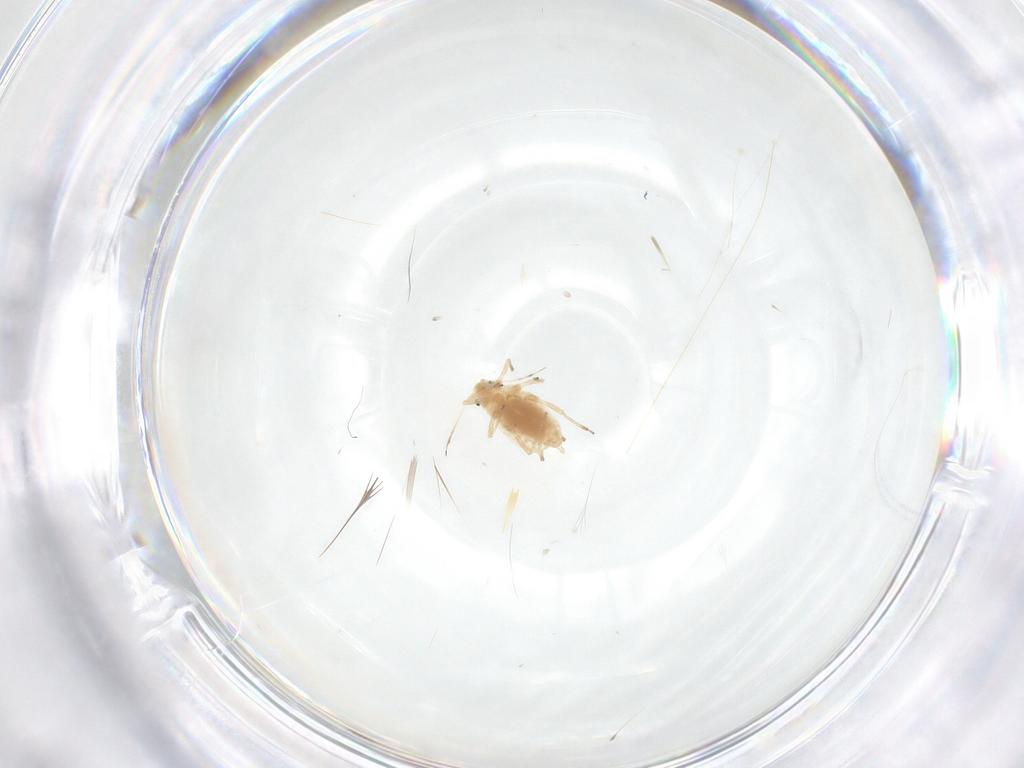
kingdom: Animalia
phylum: Arthropoda
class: Insecta
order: Hemiptera
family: Aphididae
